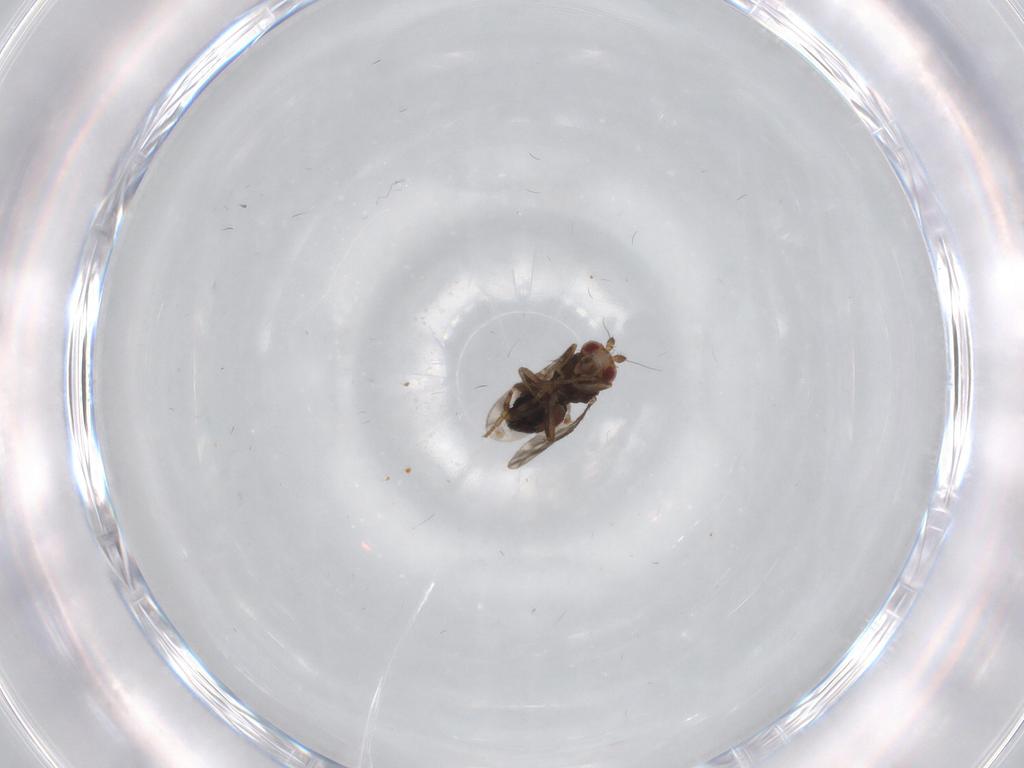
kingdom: Animalia
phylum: Arthropoda
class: Insecta
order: Diptera
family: Sphaeroceridae
